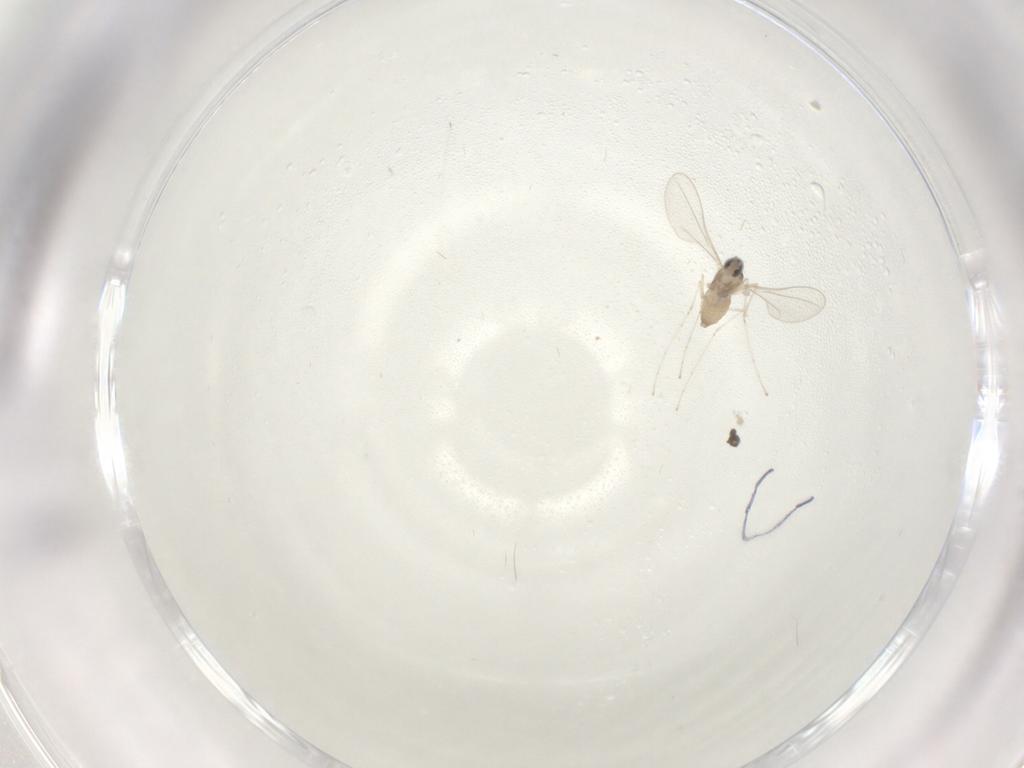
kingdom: Animalia
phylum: Arthropoda
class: Insecta
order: Diptera
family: Cecidomyiidae
